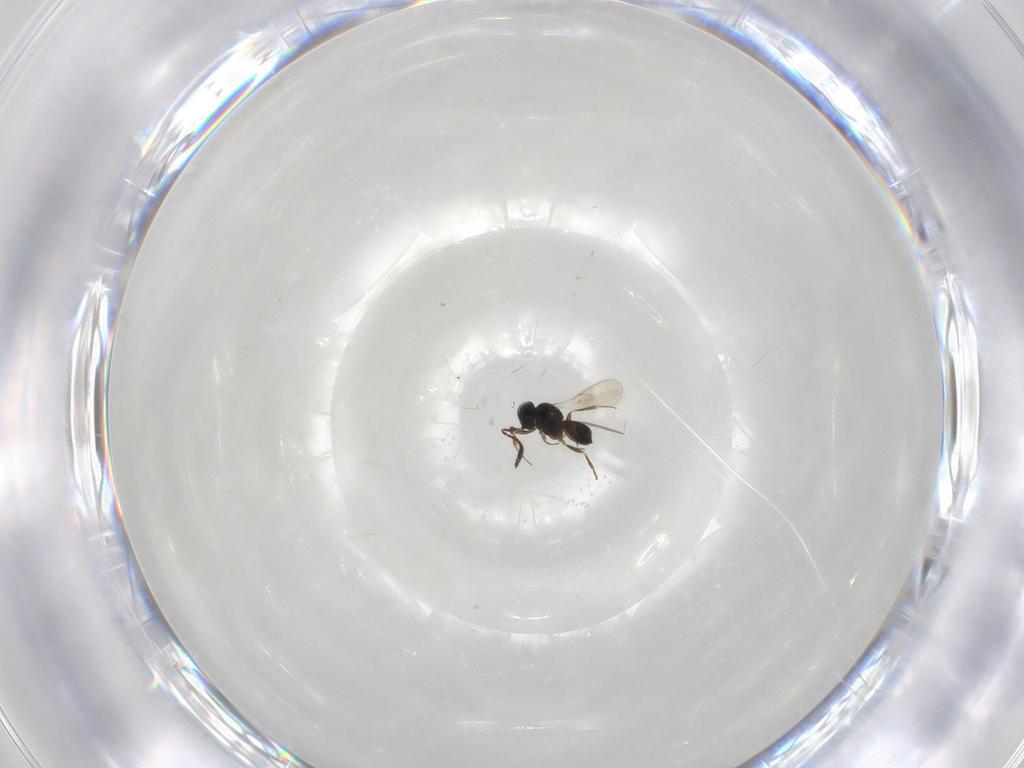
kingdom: Animalia
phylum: Arthropoda
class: Insecta
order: Hymenoptera
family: Scelionidae
